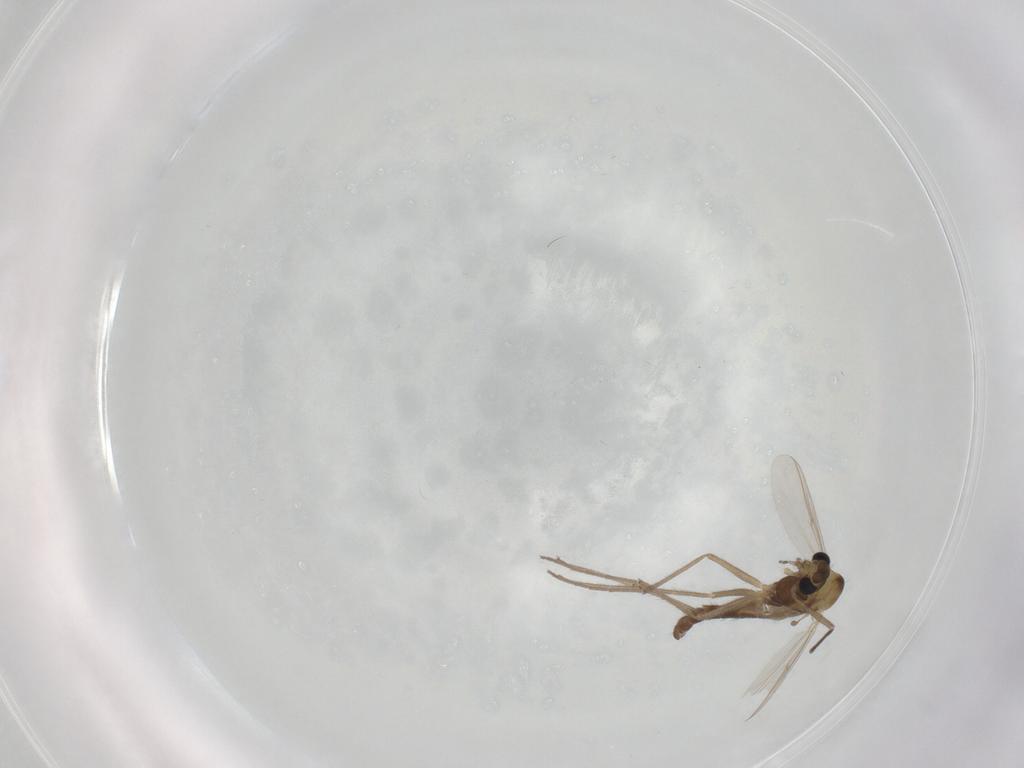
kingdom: Animalia
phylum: Arthropoda
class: Insecta
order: Diptera
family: Chironomidae
